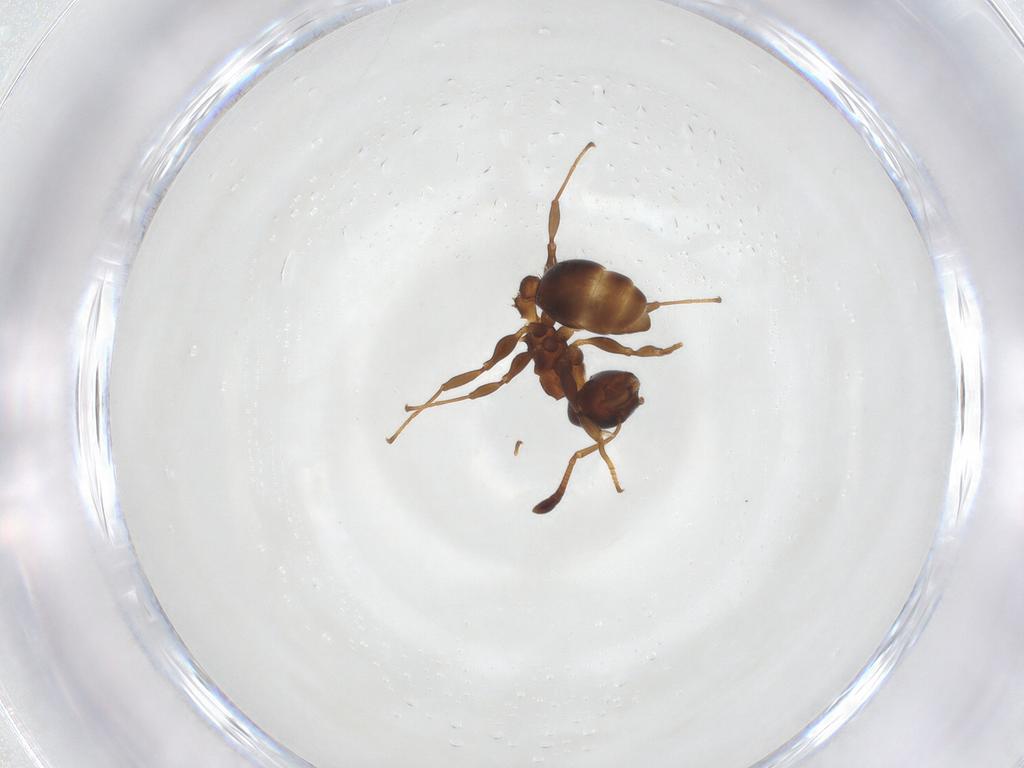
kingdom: Animalia
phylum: Arthropoda
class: Insecta
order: Hymenoptera
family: Formicidae
